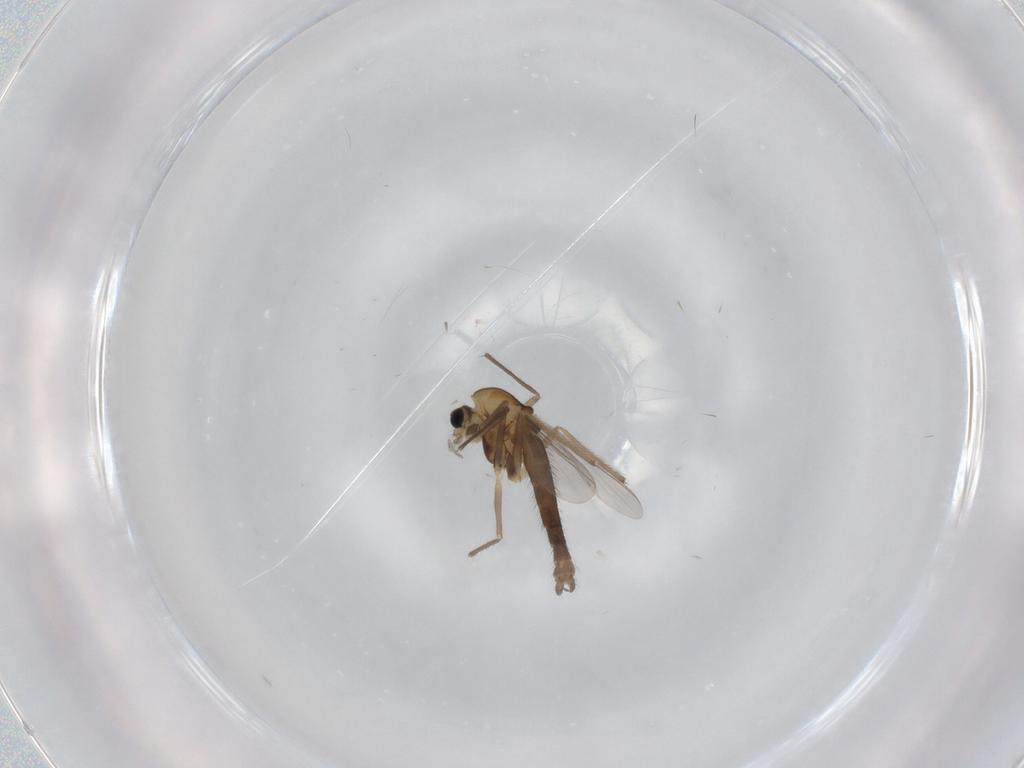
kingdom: Animalia
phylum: Arthropoda
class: Insecta
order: Diptera
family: Chironomidae
